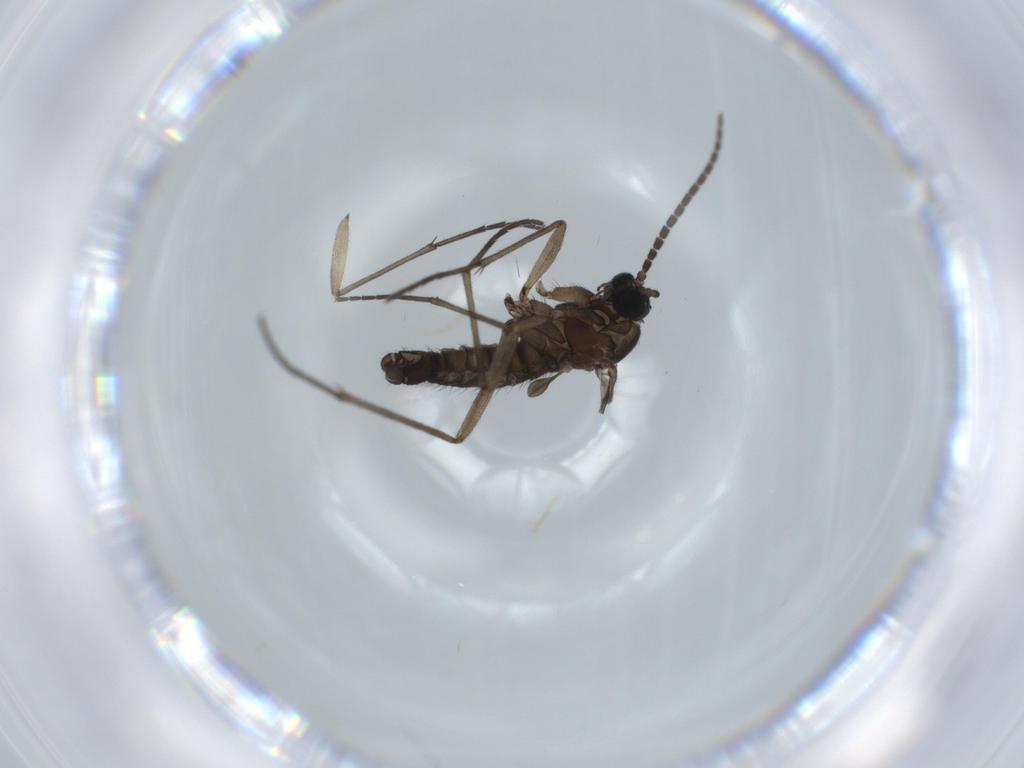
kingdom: Animalia
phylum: Arthropoda
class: Insecta
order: Diptera
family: Sciaridae
